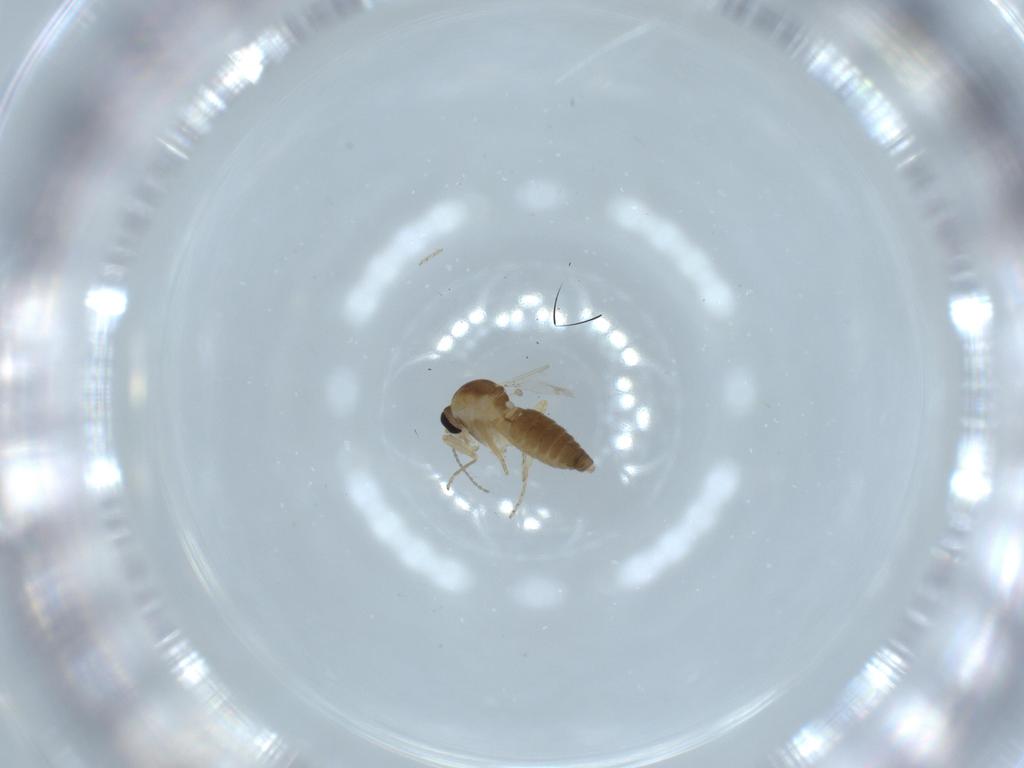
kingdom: Animalia
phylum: Arthropoda
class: Insecta
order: Diptera
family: Ceratopogonidae
